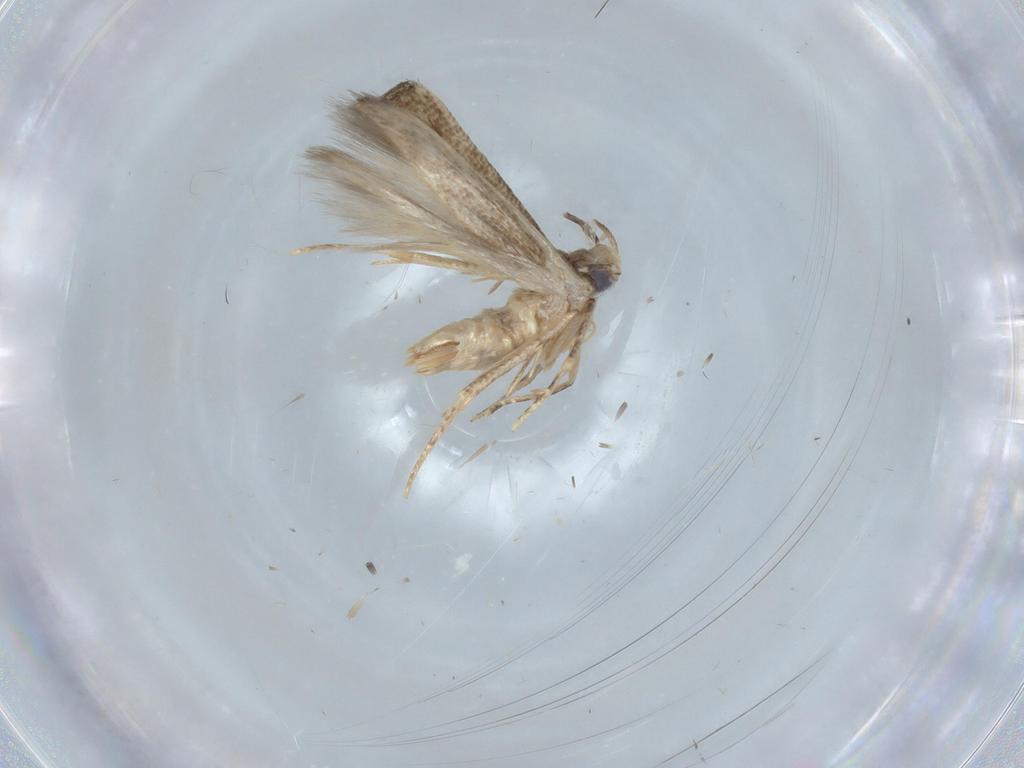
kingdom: Animalia
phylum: Arthropoda
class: Insecta
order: Lepidoptera
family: Cosmopterigidae
